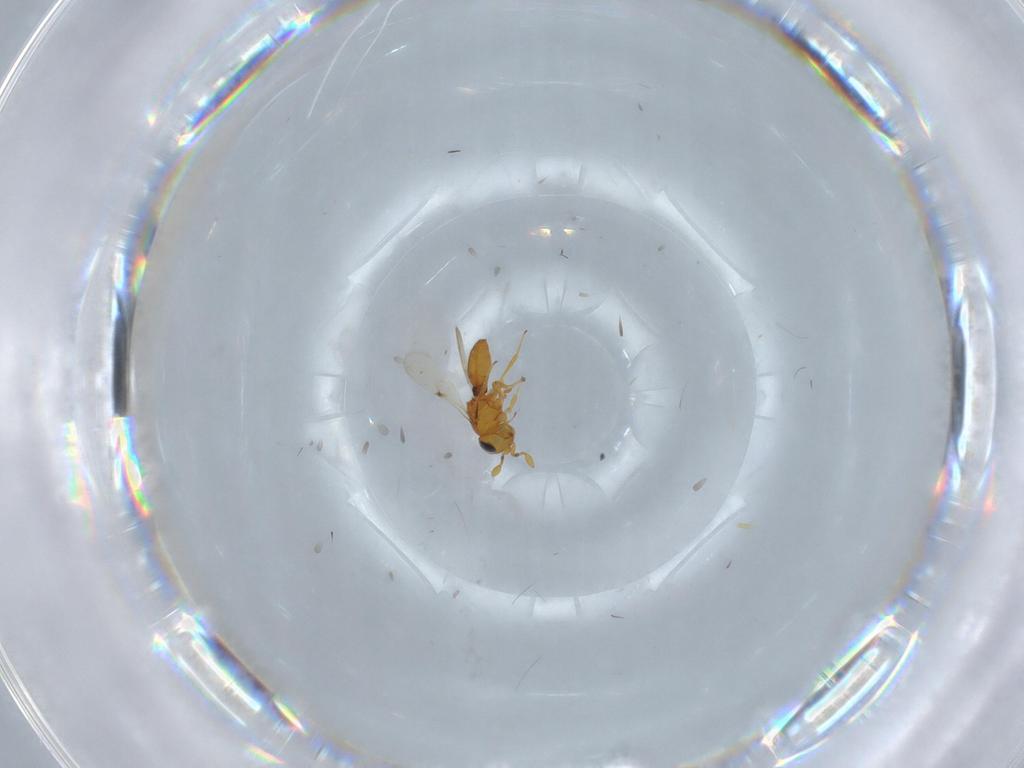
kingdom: Animalia
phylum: Arthropoda
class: Insecta
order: Hymenoptera
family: Scelionidae
